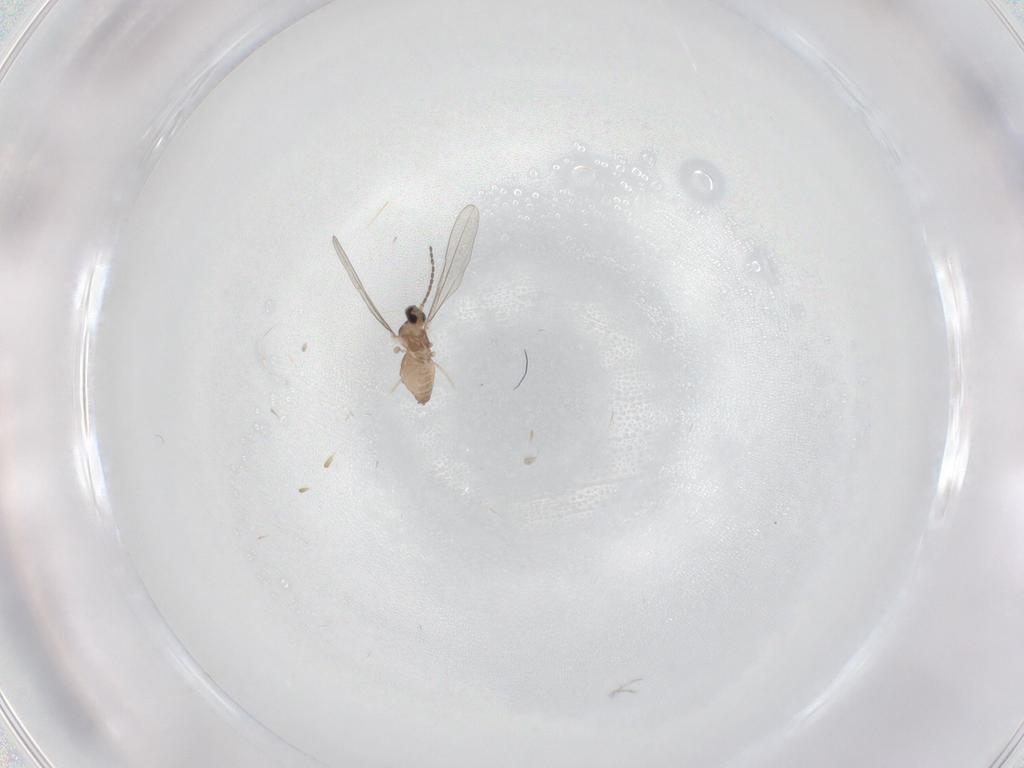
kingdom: Animalia
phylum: Arthropoda
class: Insecta
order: Diptera
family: Cecidomyiidae
